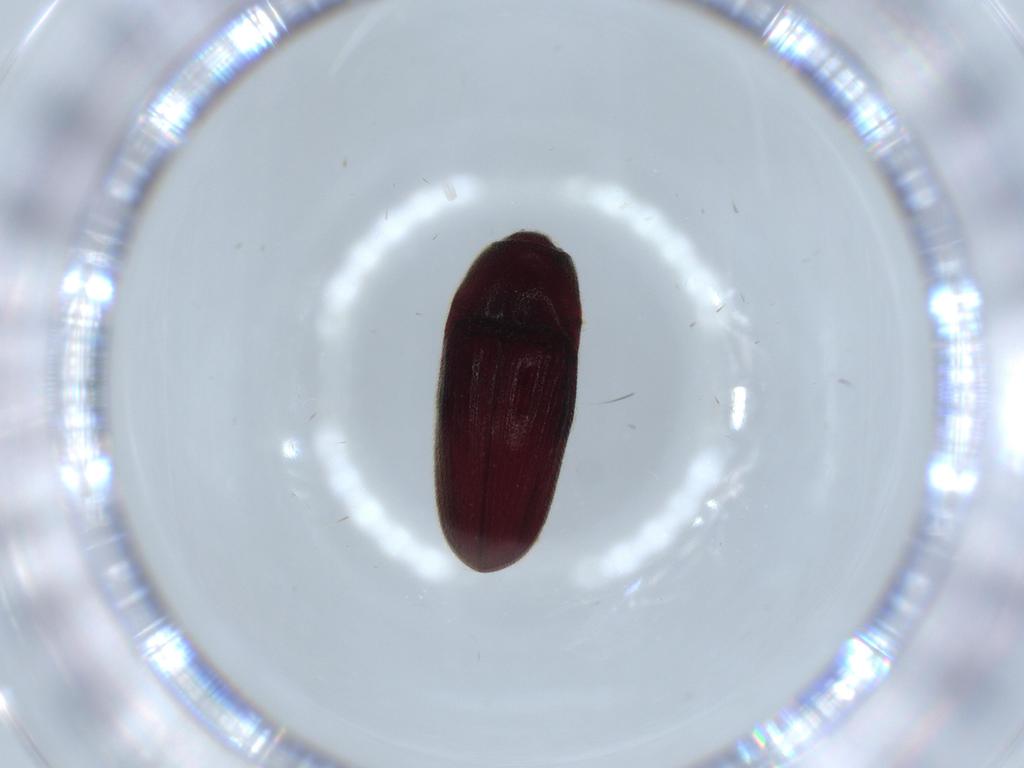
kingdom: Animalia
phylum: Arthropoda
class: Insecta
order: Coleoptera
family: Throscidae
